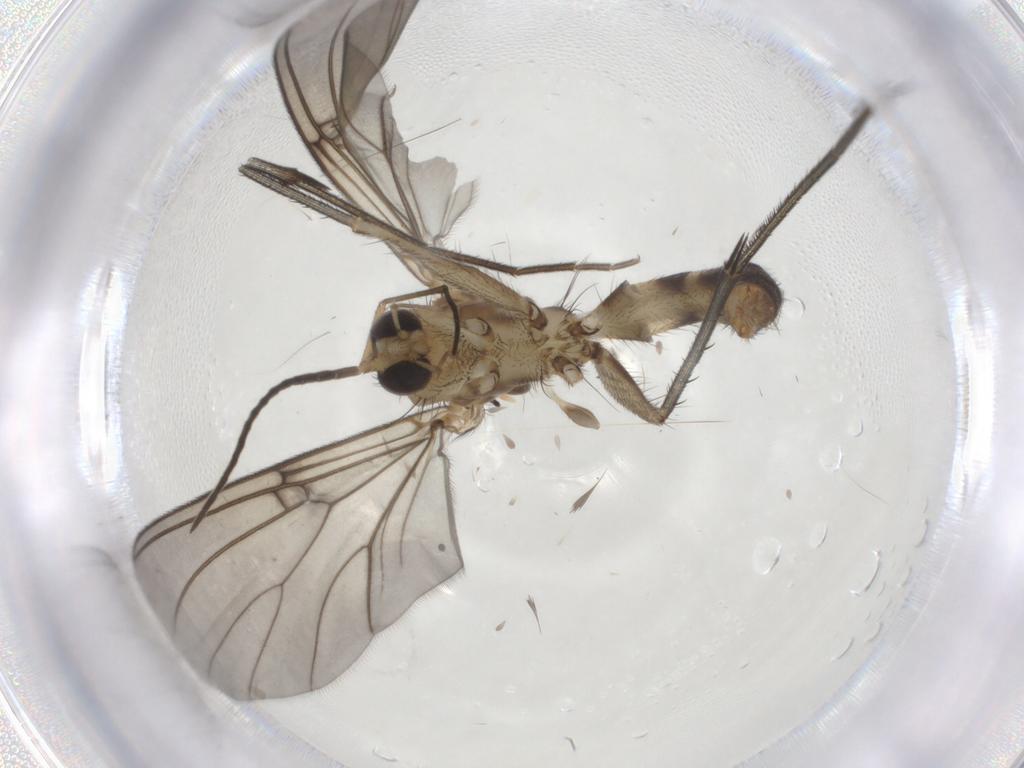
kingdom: Animalia
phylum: Arthropoda
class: Insecta
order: Diptera
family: Mycetophilidae
